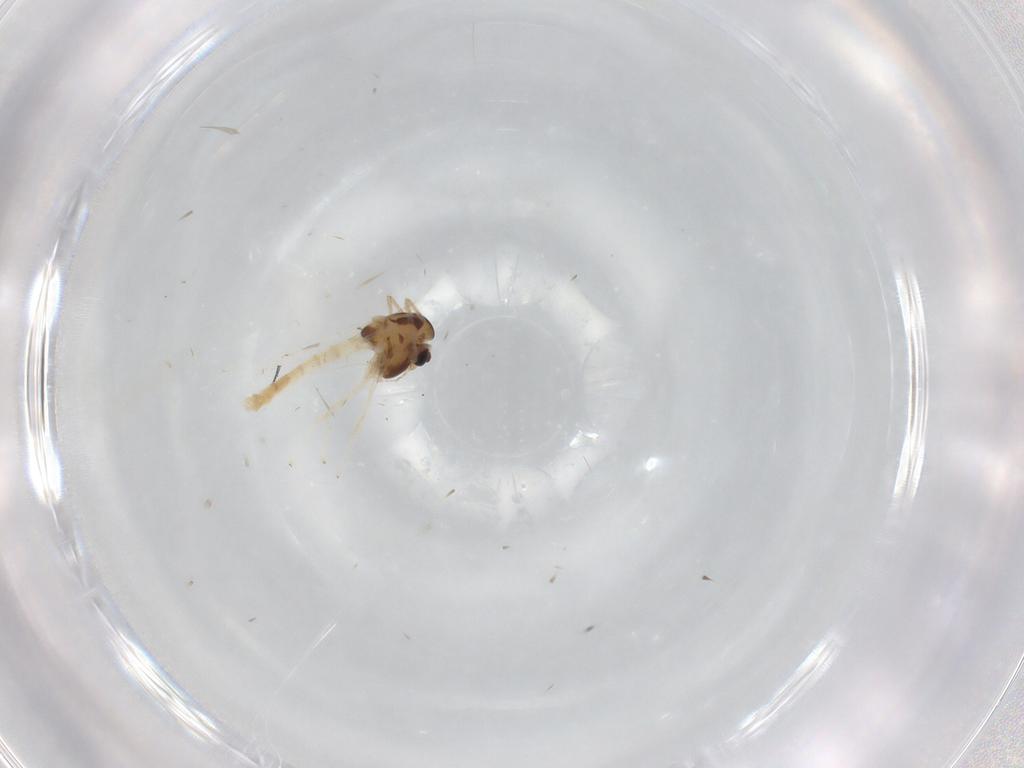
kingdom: Animalia
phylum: Arthropoda
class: Insecta
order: Diptera
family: Chironomidae
